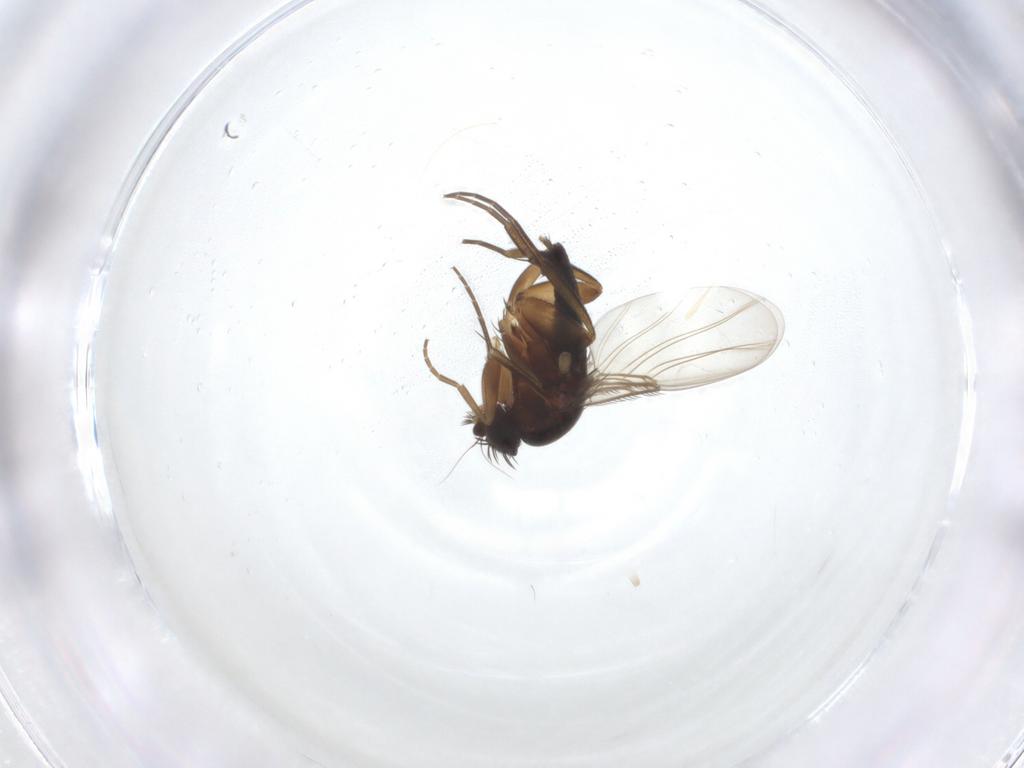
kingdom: Animalia
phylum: Arthropoda
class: Insecta
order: Diptera
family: Phoridae
